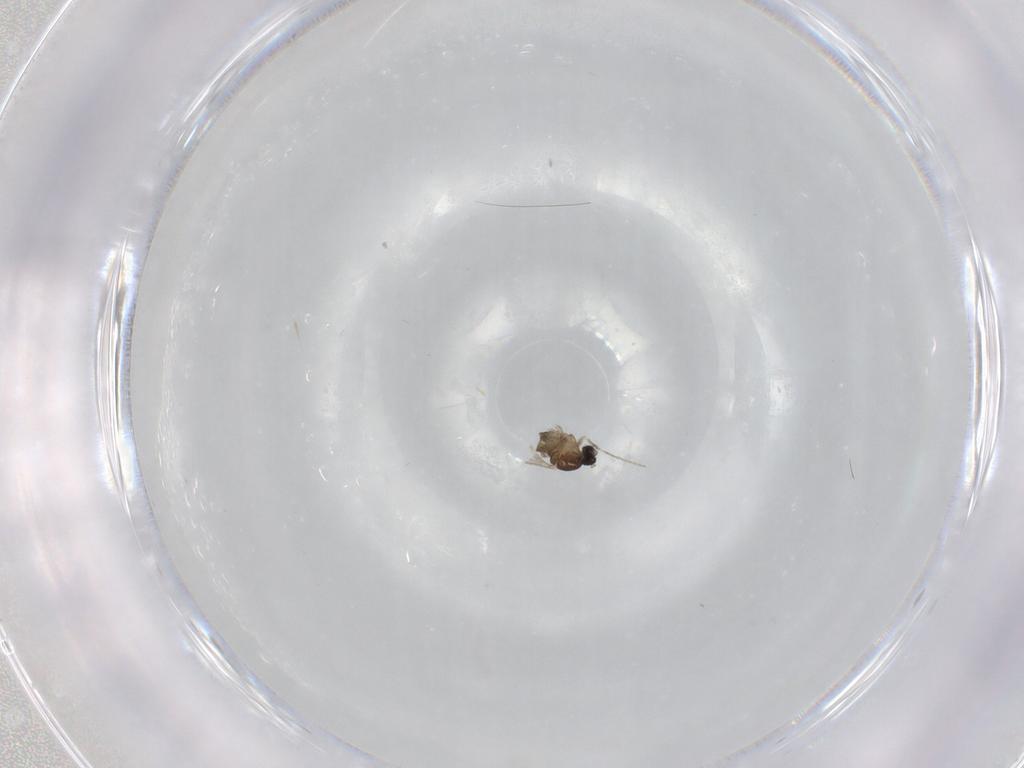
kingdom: Animalia
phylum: Arthropoda
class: Insecta
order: Diptera
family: Cecidomyiidae
